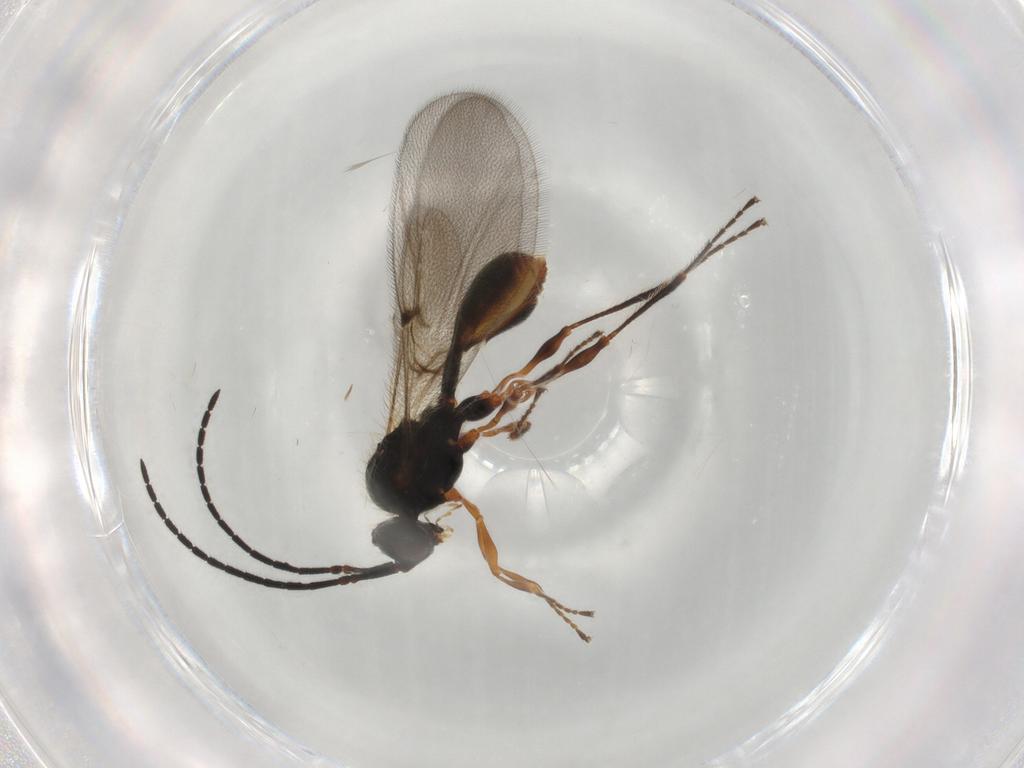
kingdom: Animalia
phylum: Arthropoda
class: Insecta
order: Hymenoptera
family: Diapriidae
